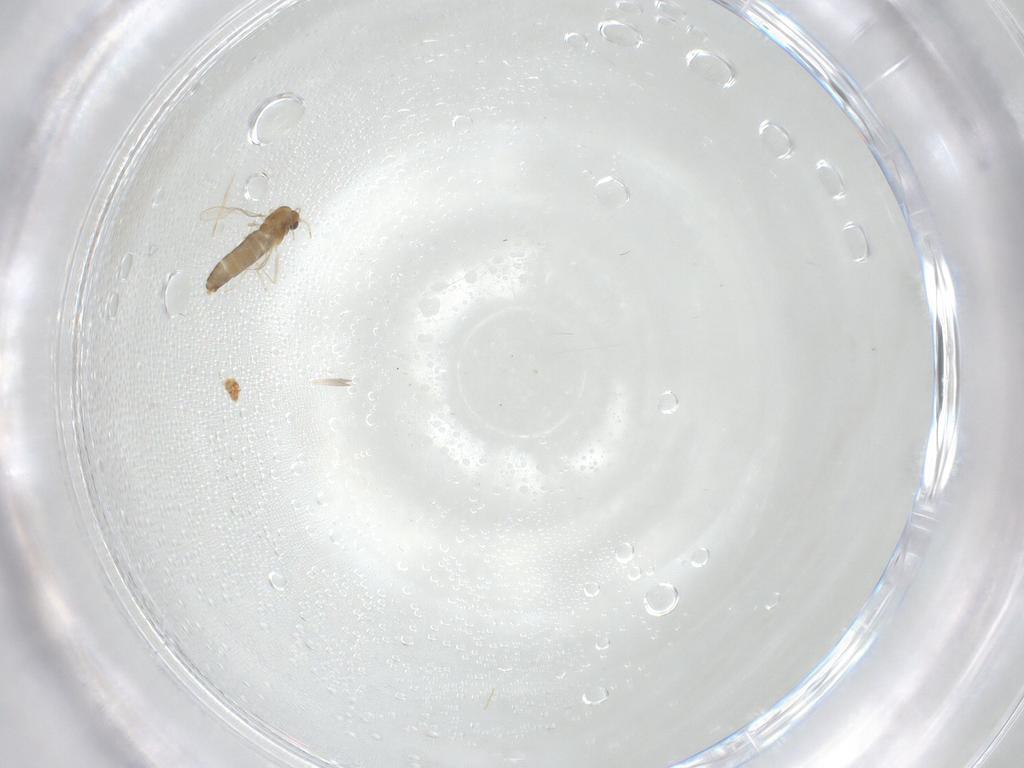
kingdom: Animalia
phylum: Arthropoda
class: Insecta
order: Diptera
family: Chironomidae
